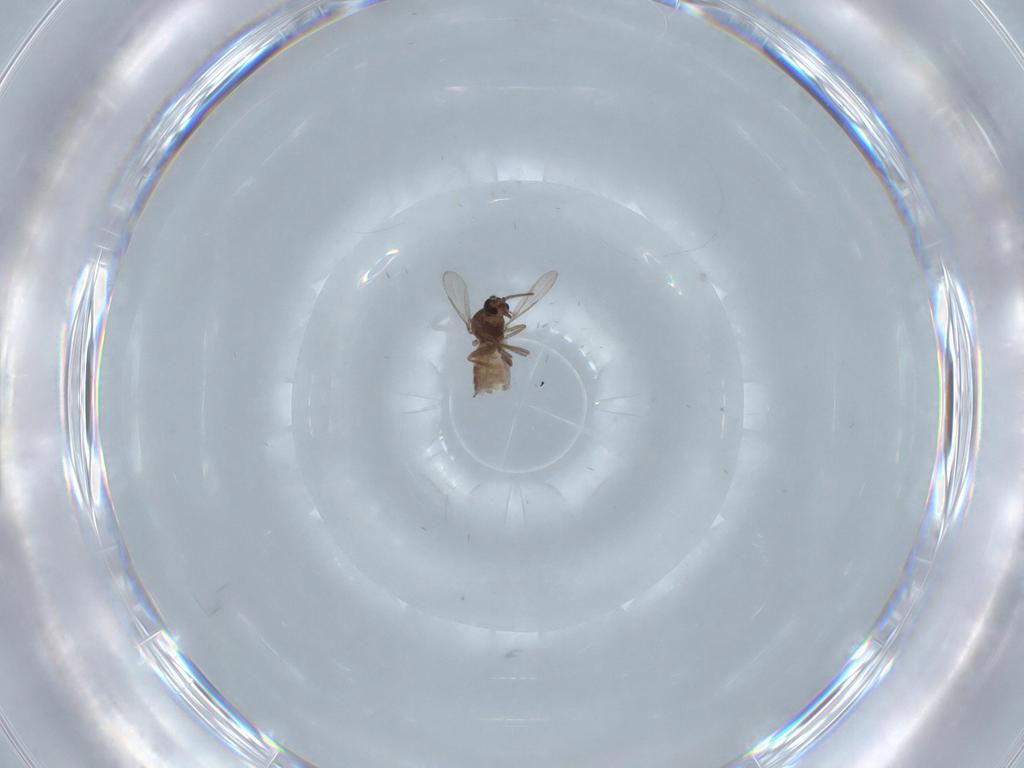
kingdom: Animalia
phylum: Arthropoda
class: Insecta
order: Diptera
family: Ceratopogonidae
